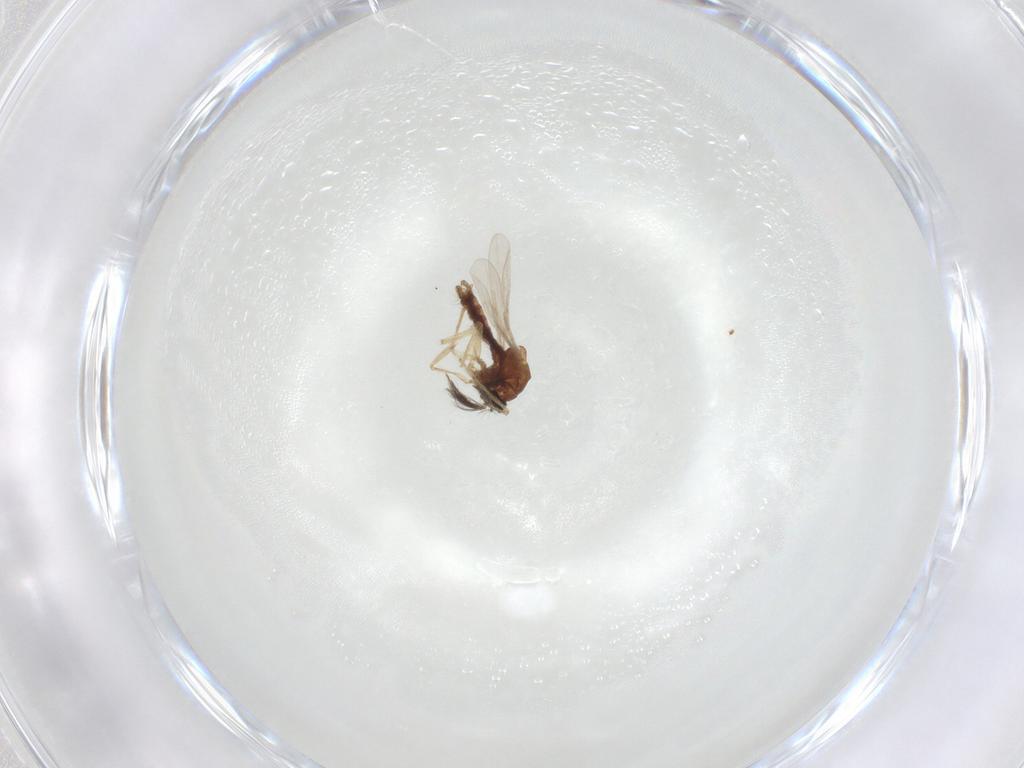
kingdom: Animalia
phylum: Arthropoda
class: Insecta
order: Diptera
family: Ceratopogonidae
